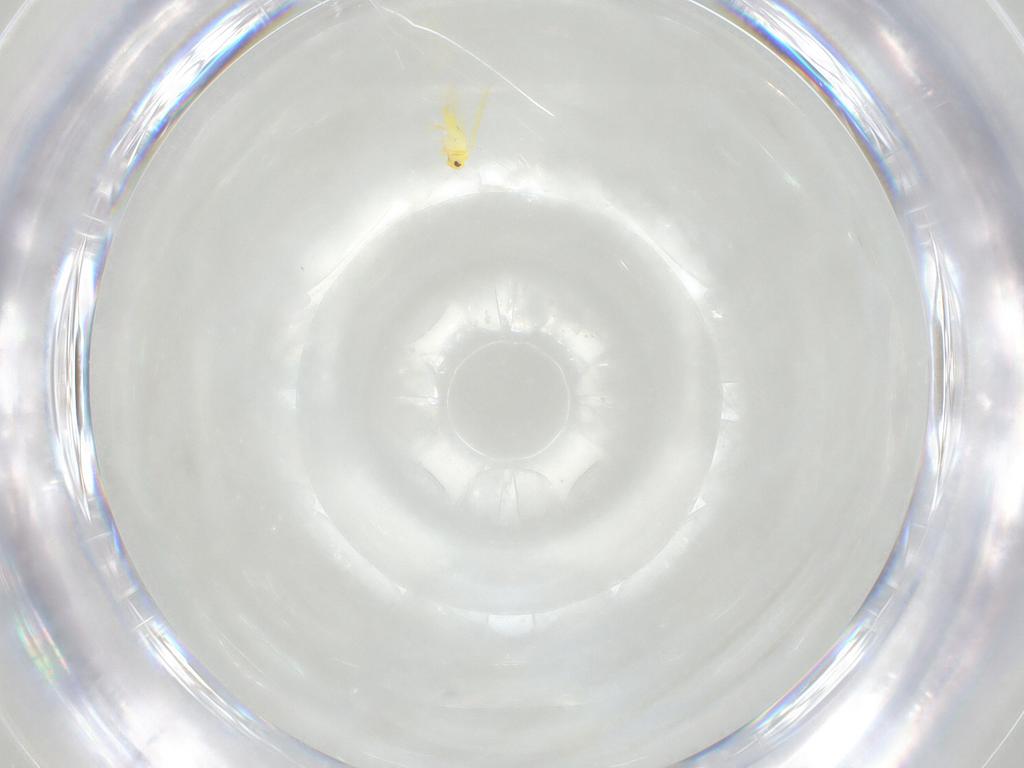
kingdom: Animalia
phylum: Arthropoda
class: Insecta
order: Hemiptera
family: Aleyrodidae
